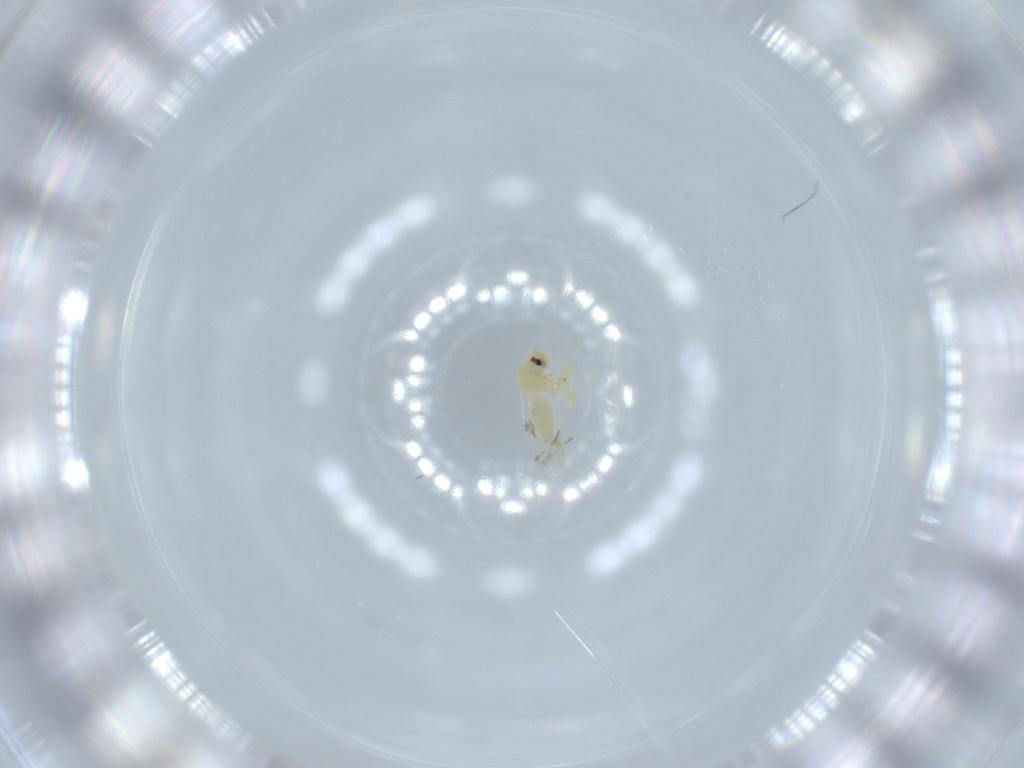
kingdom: Animalia
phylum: Arthropoda
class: Insecta
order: Hemiptera
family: Aleyrodidae
